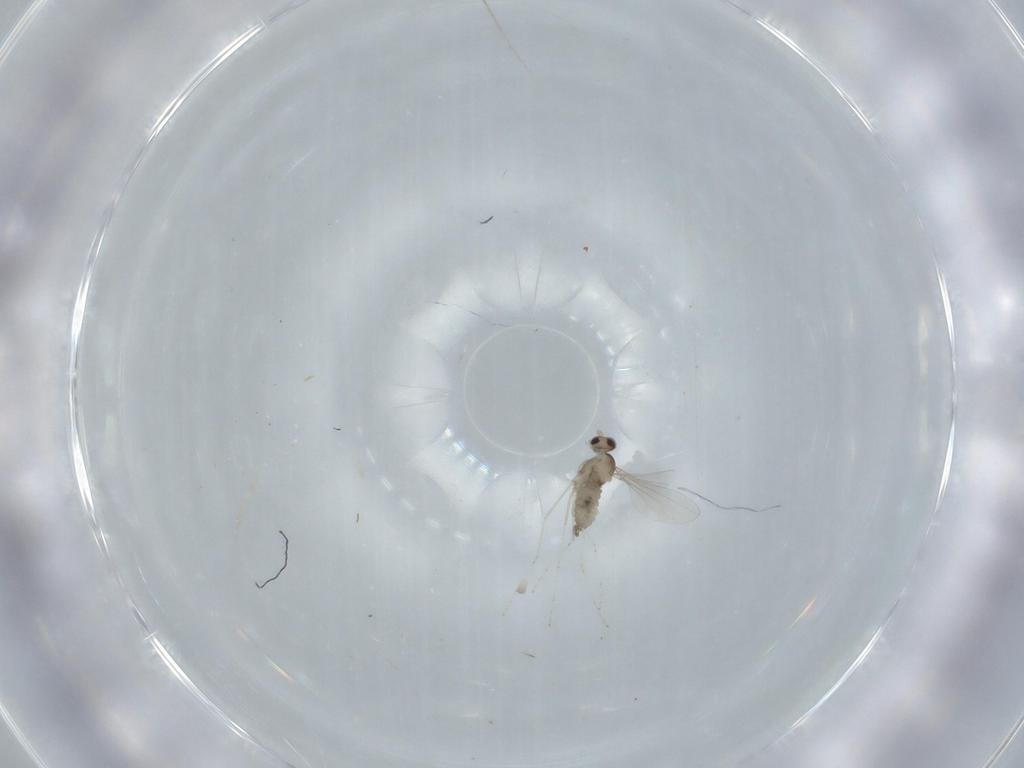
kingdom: Animalia
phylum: Arthropoda
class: Insecta
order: Diptera
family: Cecidomyiidae
